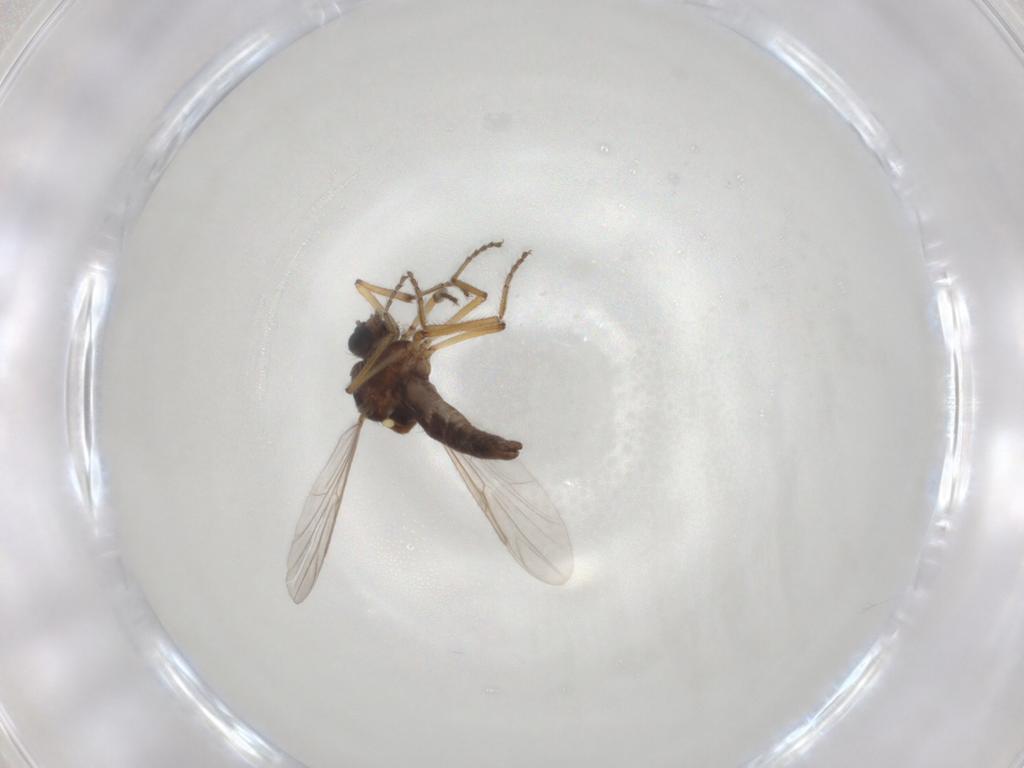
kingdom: Animalia
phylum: Arthropoda
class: Insecta
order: Diptera
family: Ceratopogonidae
